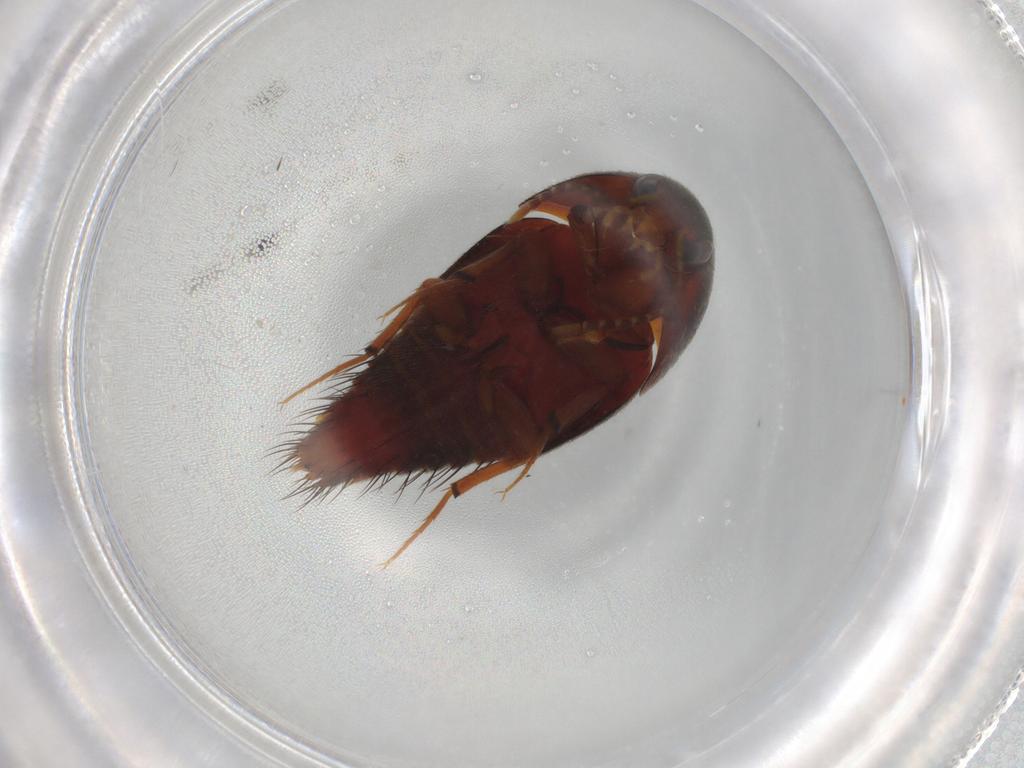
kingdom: Animalia
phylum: Arthropoda
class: Insecta
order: Coleoptera
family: Staphylinidae
